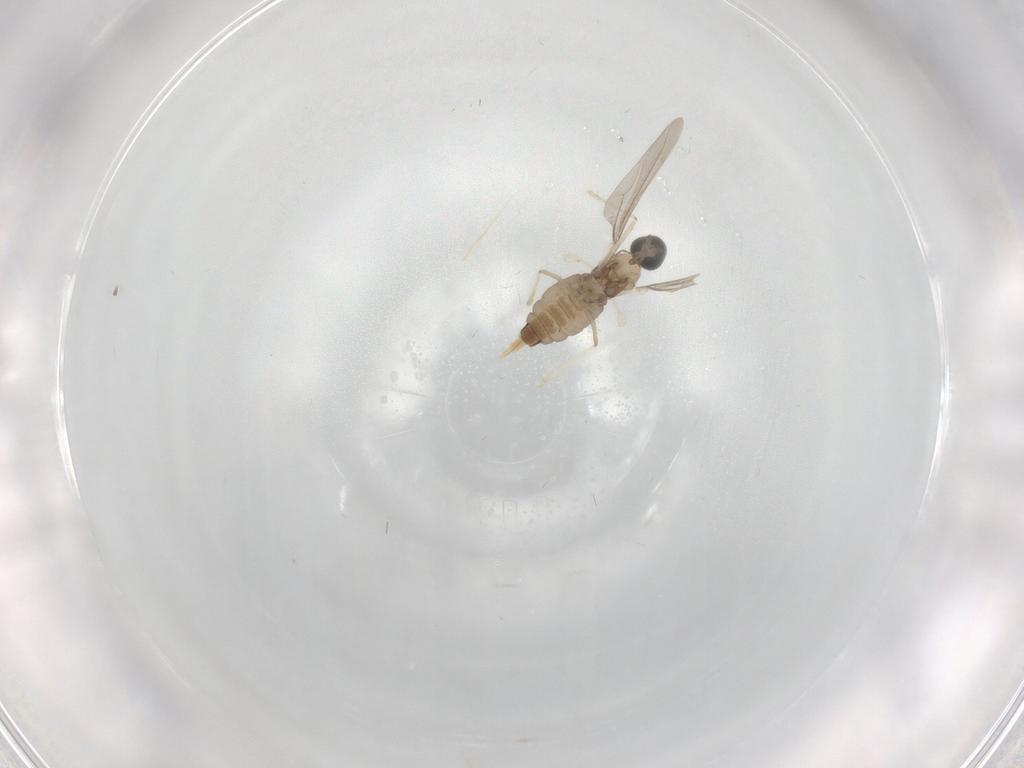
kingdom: Animalia
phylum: Arthropoda
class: Insecta
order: Diptera
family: Cecidomyiidae
